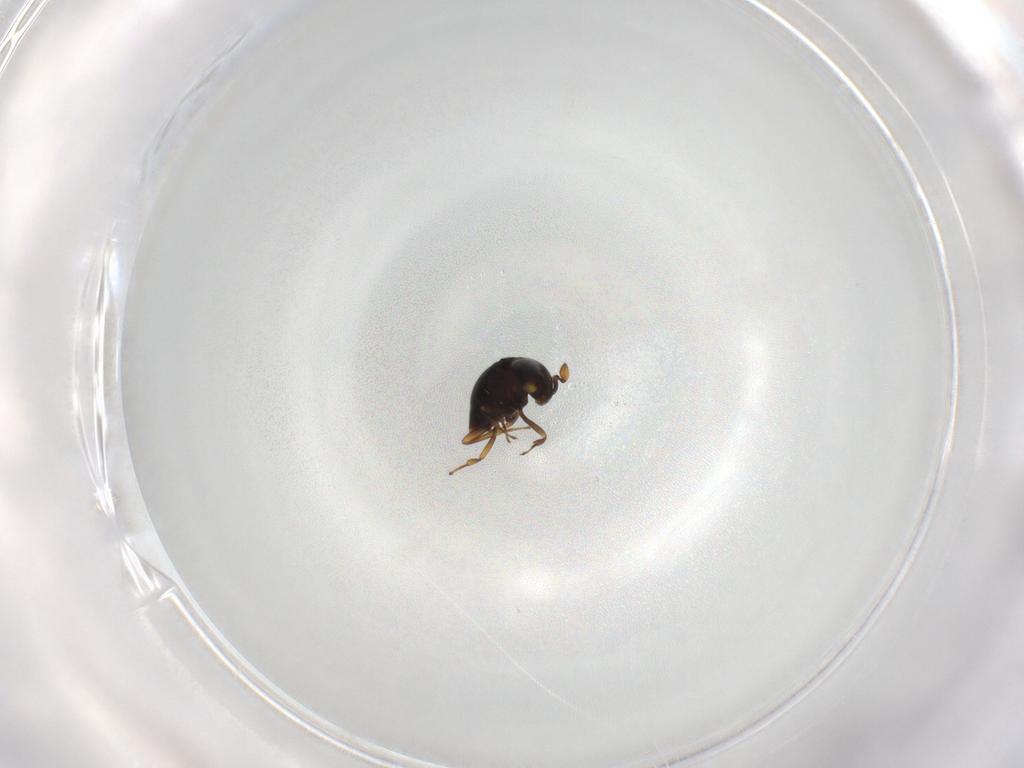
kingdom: Animalia
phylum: Arthropoda
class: Insecta
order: Hymenoptera
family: Scelionidae
